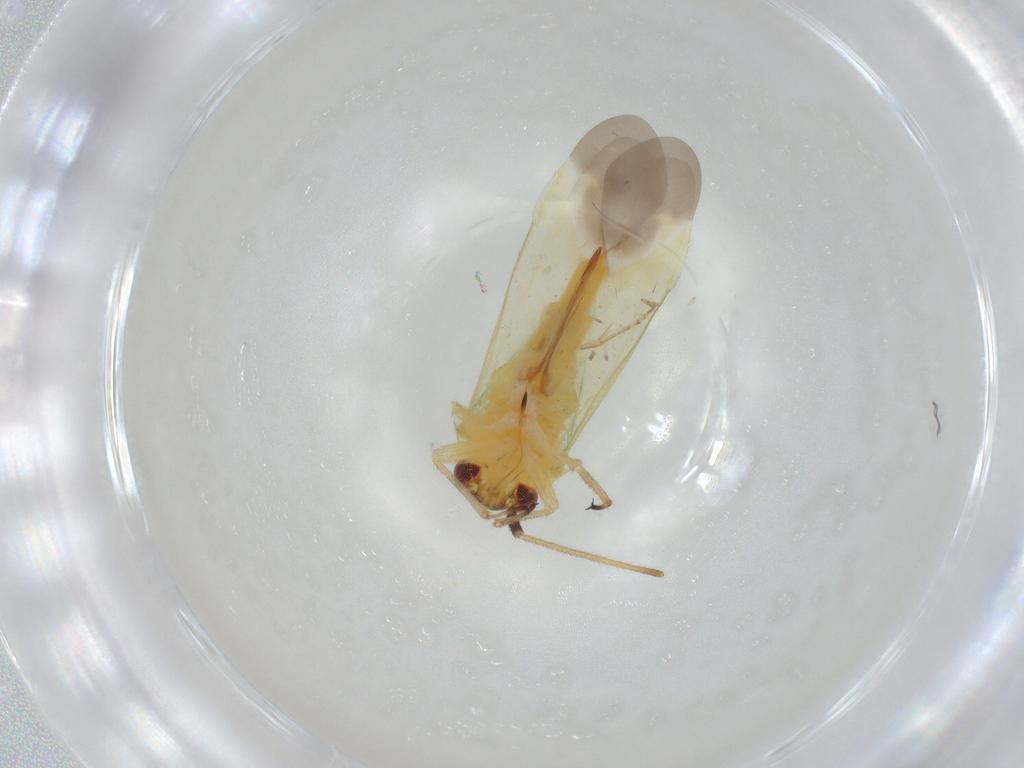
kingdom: Animalia
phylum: Arthropoda
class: Insecta
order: Hemiptera
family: Miridae
